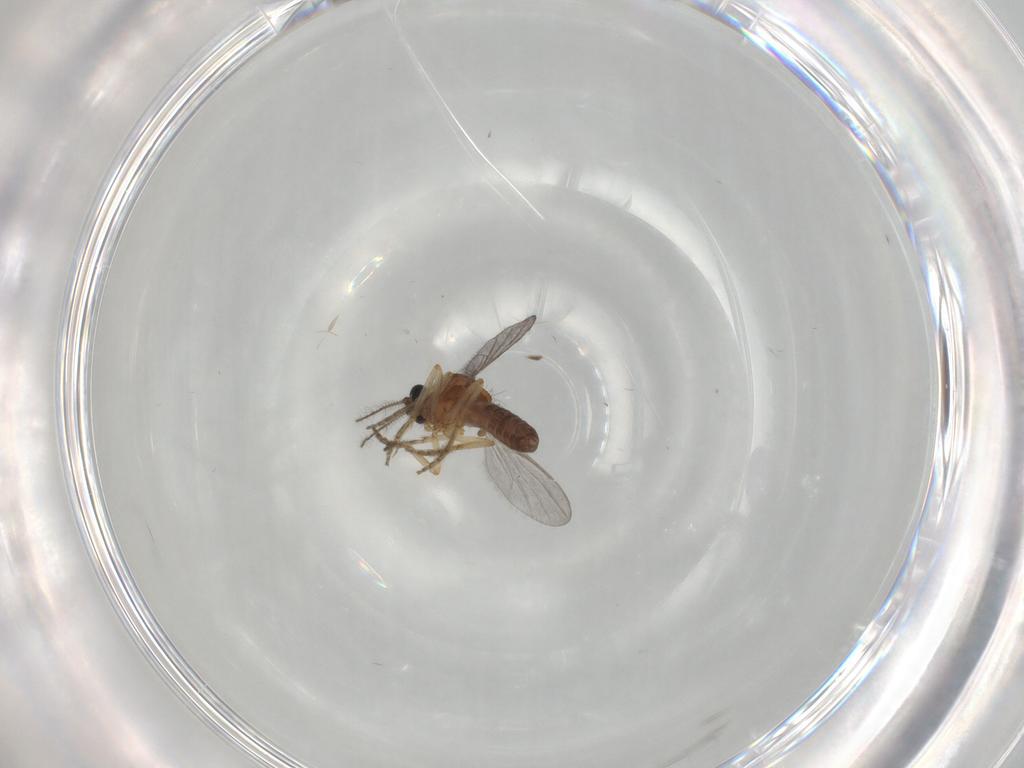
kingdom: Animalia
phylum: Arthropoda
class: Insecta
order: Diptera
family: Ceratopogonidae
